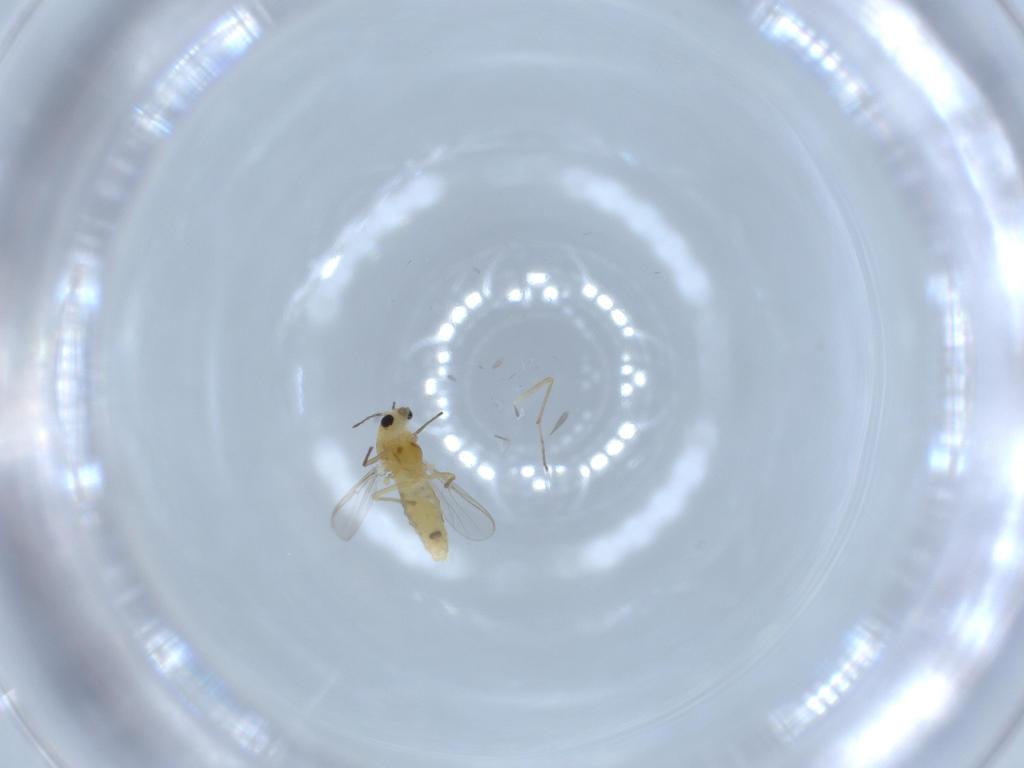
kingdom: Animalia
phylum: Arthropoda
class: Insecta
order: Diptera
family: Chironomidae
